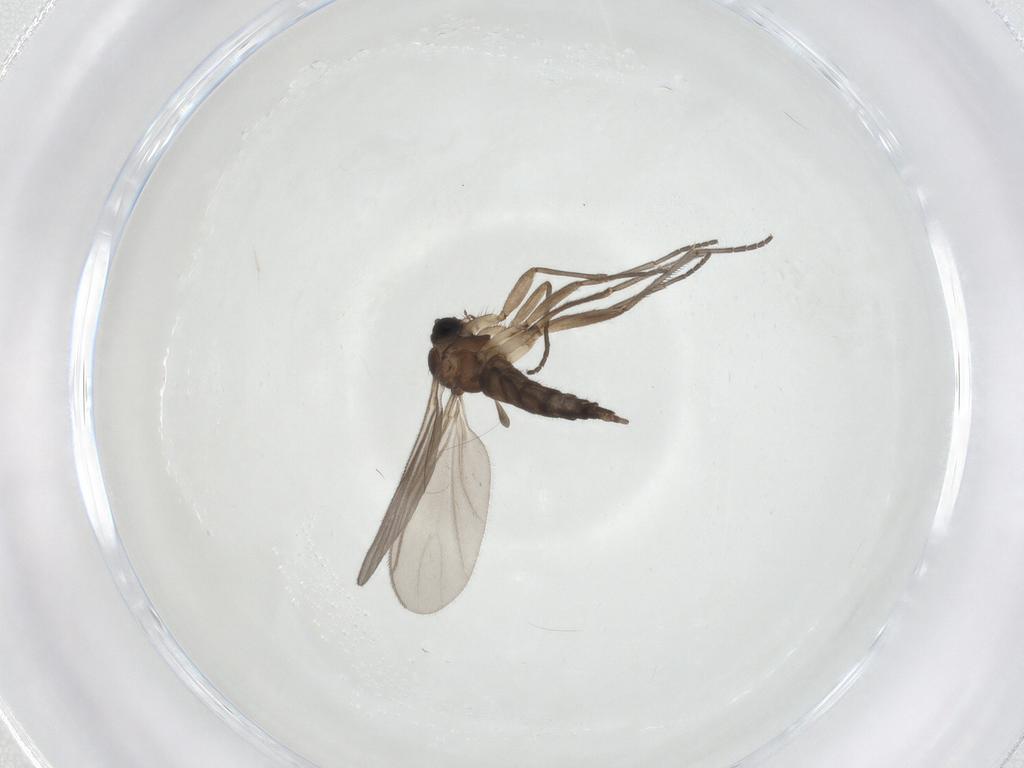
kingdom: Animalia
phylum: Arthropoda
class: Insecta
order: Diptera
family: Sciaridae
